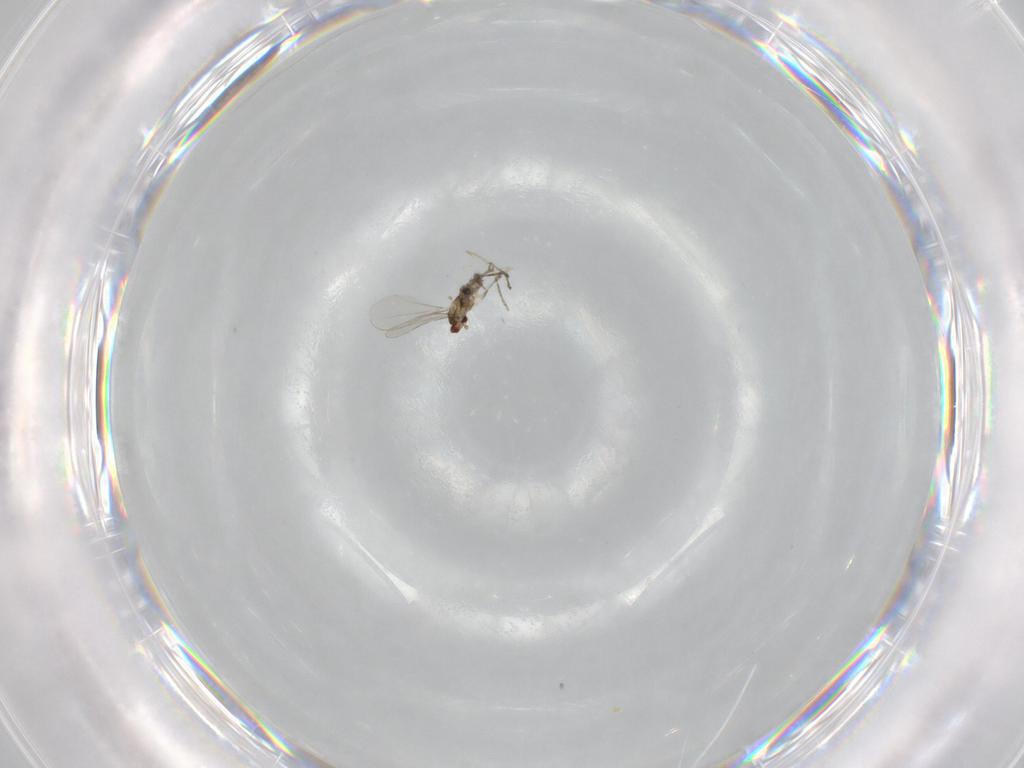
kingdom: Animalia
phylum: Arthropoda
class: Insecta
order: Diptera
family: Cecidomyiidae
